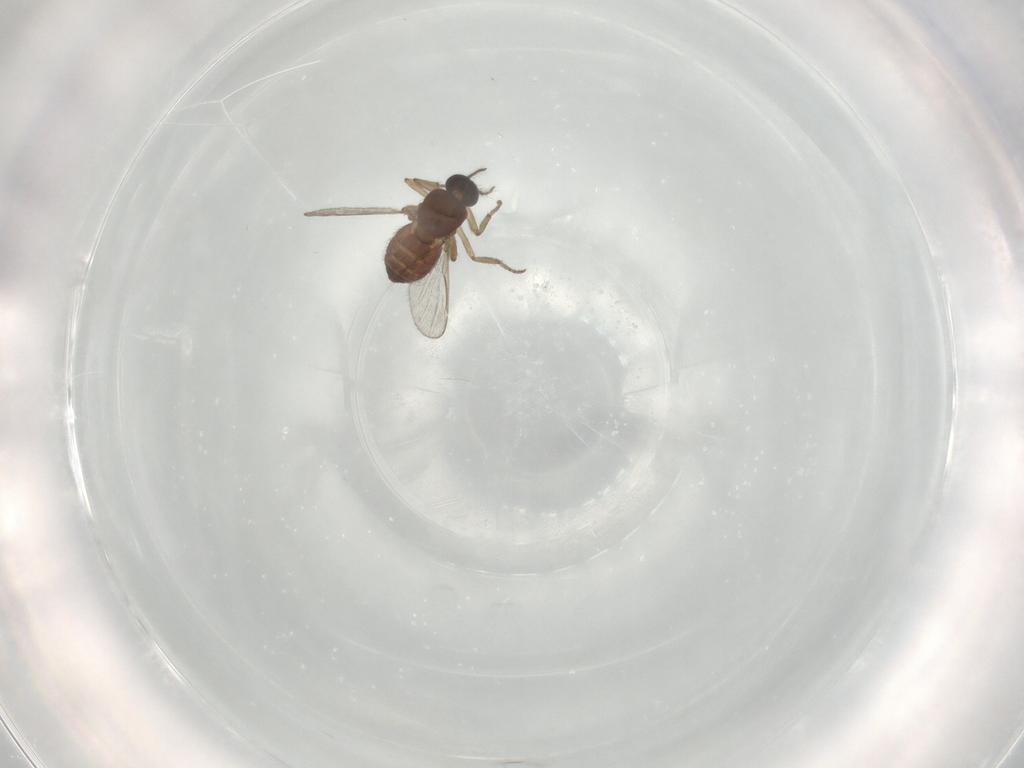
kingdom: Animalia
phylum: Arthropoda
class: Insecta
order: Diptera
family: Ceratopogonidae
